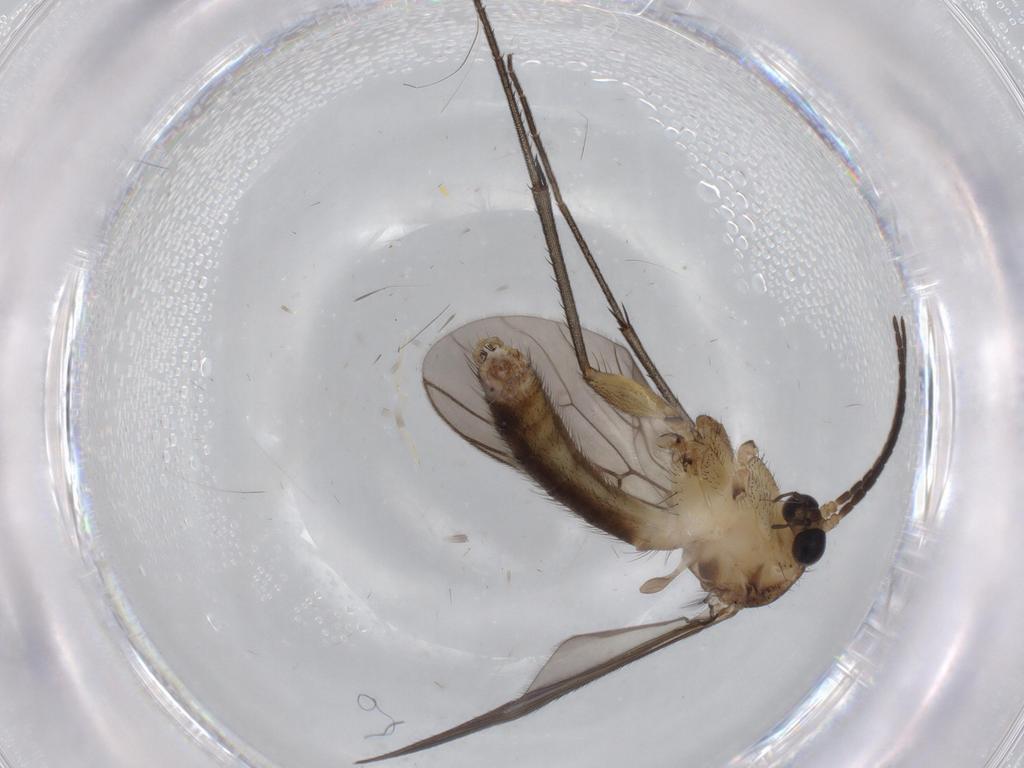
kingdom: Animalia
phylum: Arthropoda
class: Insecta
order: Diptera
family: Mycetophilidae
